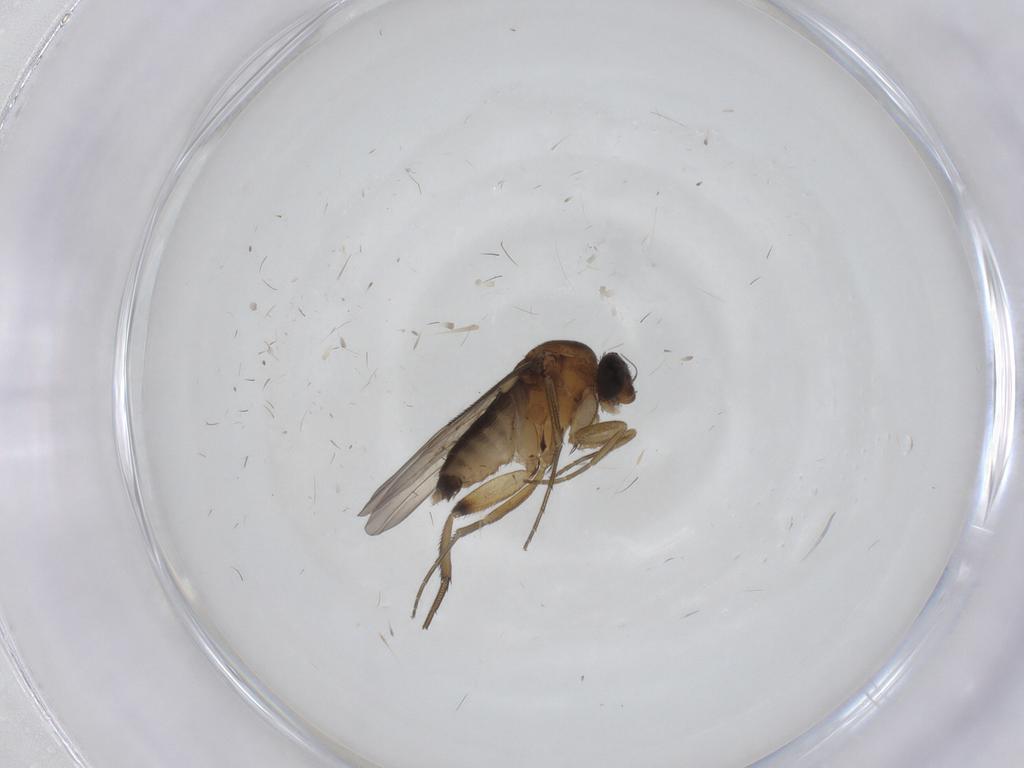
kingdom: Animalia
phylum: Arthropoda
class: Insecta
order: Diptera
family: Phoridae
